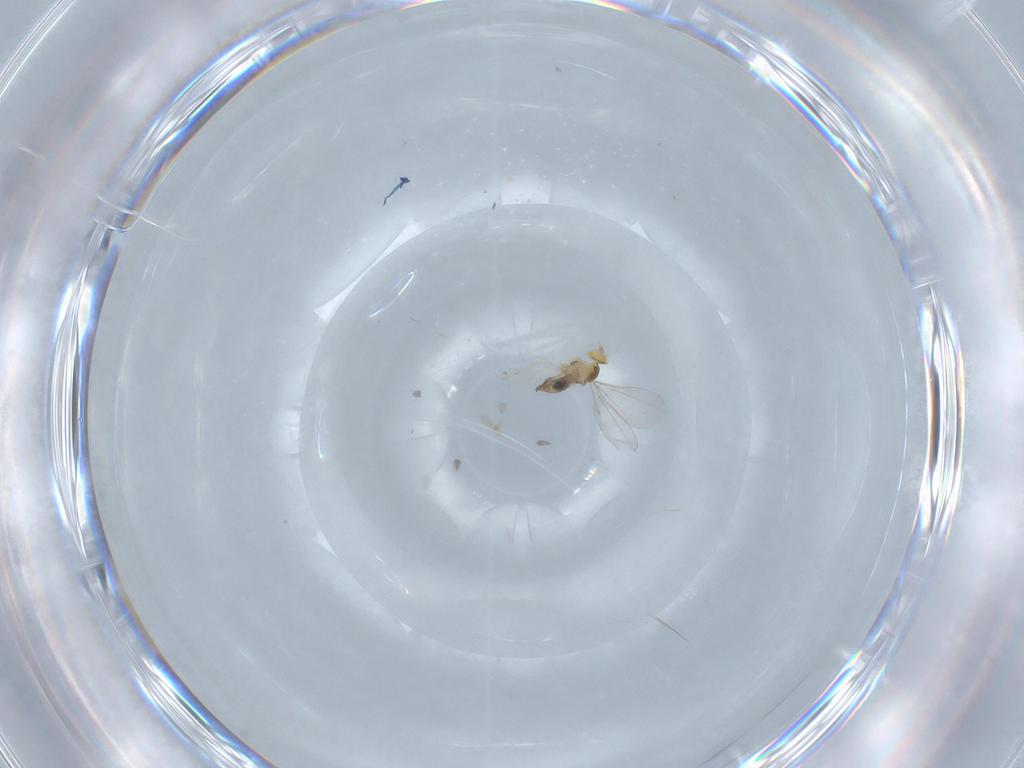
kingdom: Animalia
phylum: Arthropoda
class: Insecta
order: Diptera
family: Cecidomyiidae
